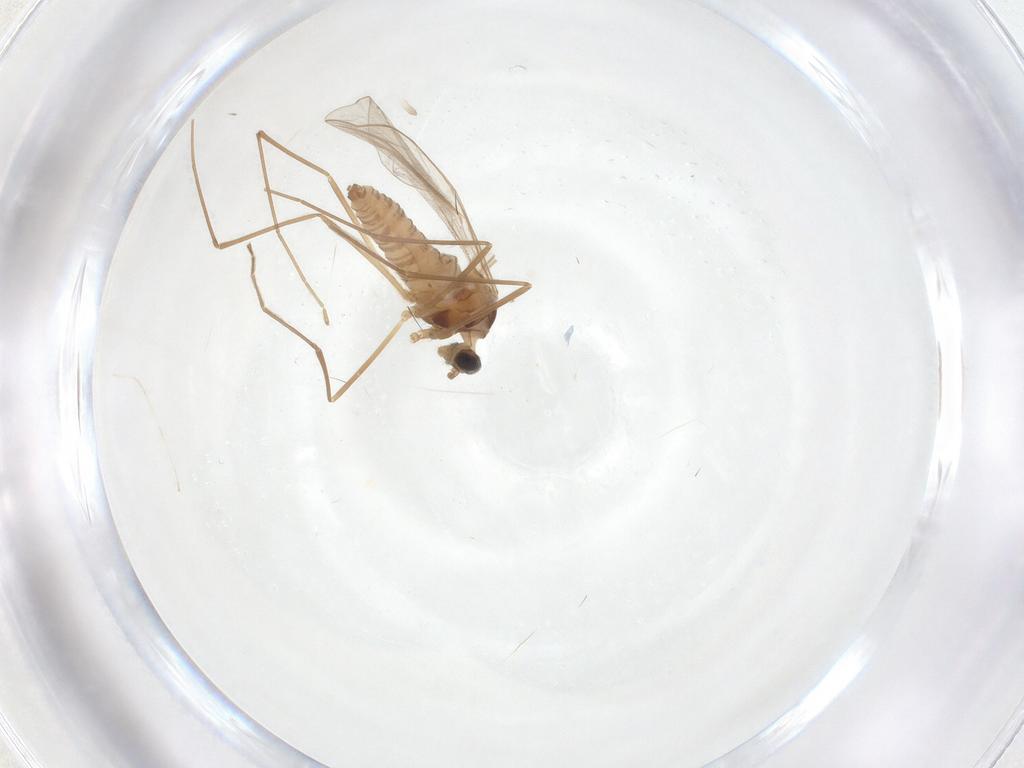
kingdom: Animalia
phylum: Arthropoda
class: Insecta
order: Diptera
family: Cecidomyiidae
